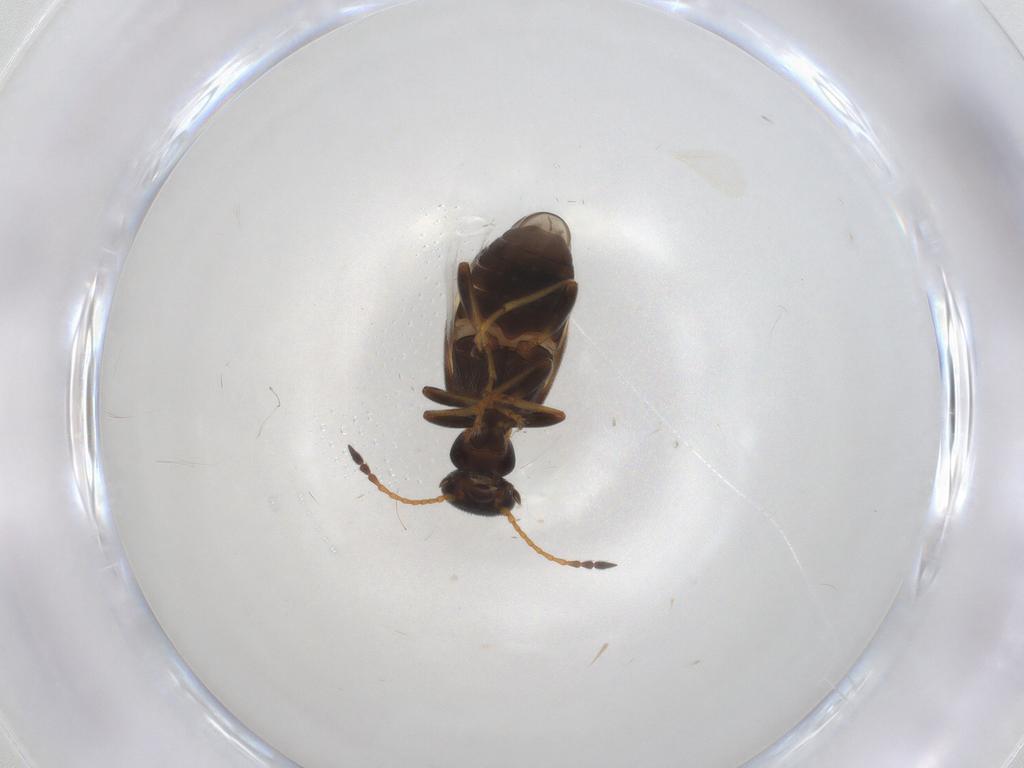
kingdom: Animalia
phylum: Arthropoda
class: Insecta
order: Coleoptera
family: Anthicidae
